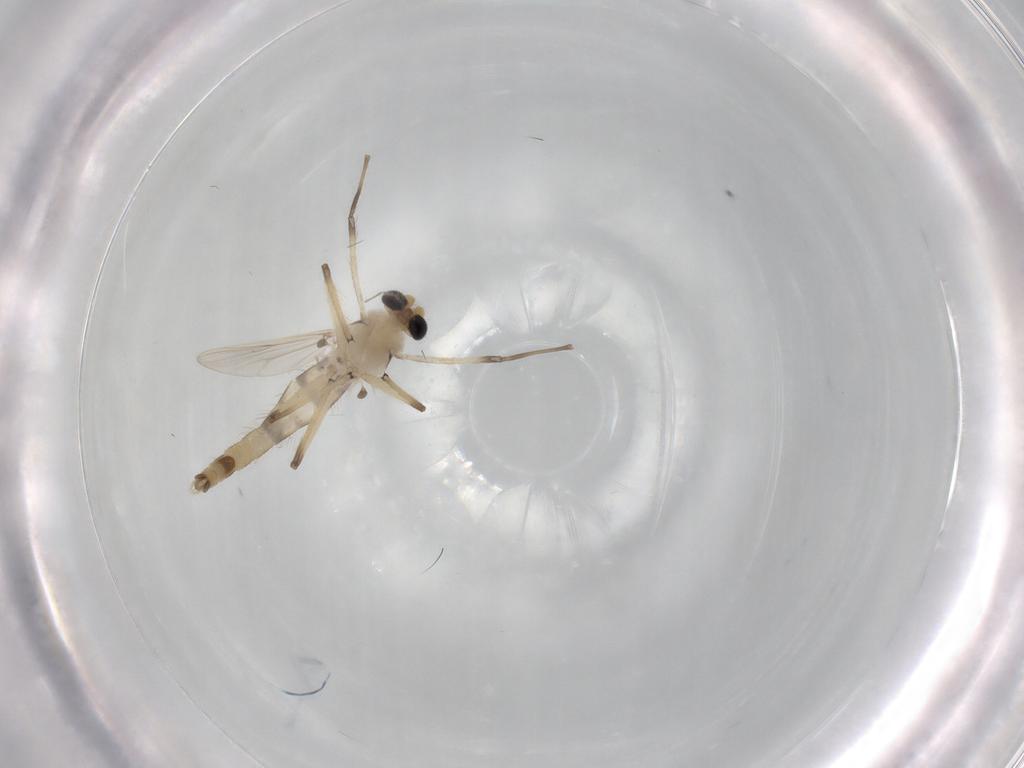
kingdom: Animalia
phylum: Arthropoda
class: Insecta
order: Diptera
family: Chironomidae
